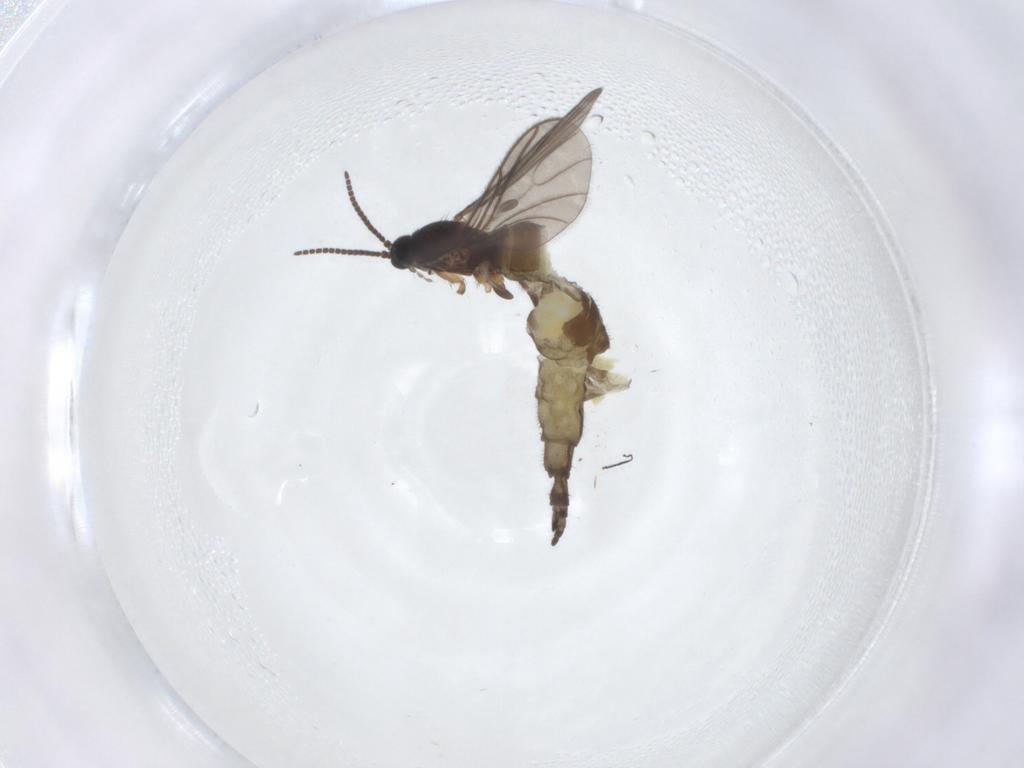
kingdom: Animalia
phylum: Arthropoda
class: Insecta
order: Diptera
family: Sciaridae
